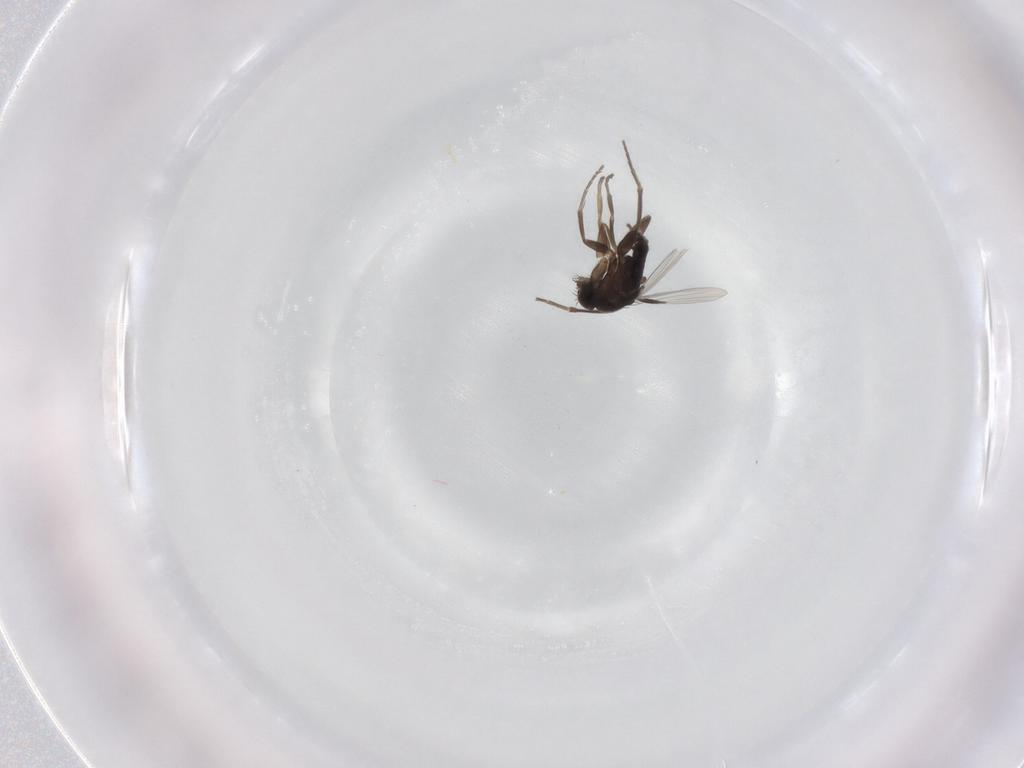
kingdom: Animalia
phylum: Arthropoda
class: Insecta
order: Diptera
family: Phoridae
